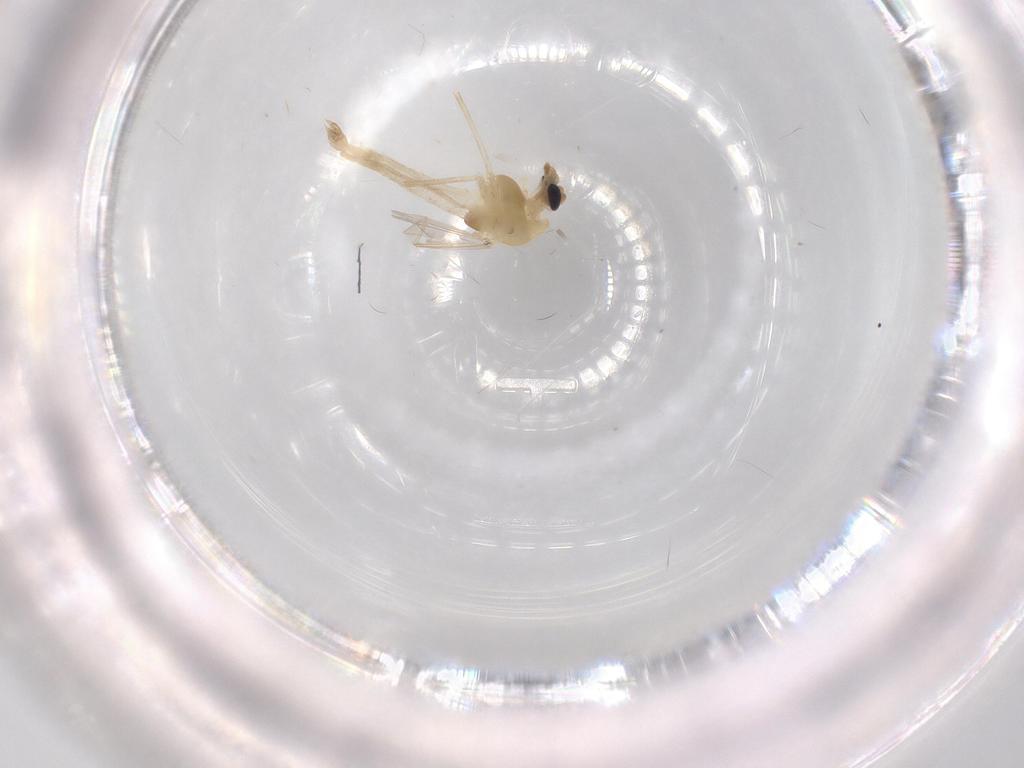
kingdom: Animalia
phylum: Arthropoda
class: Insecta
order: Diptera
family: Chironomidae
